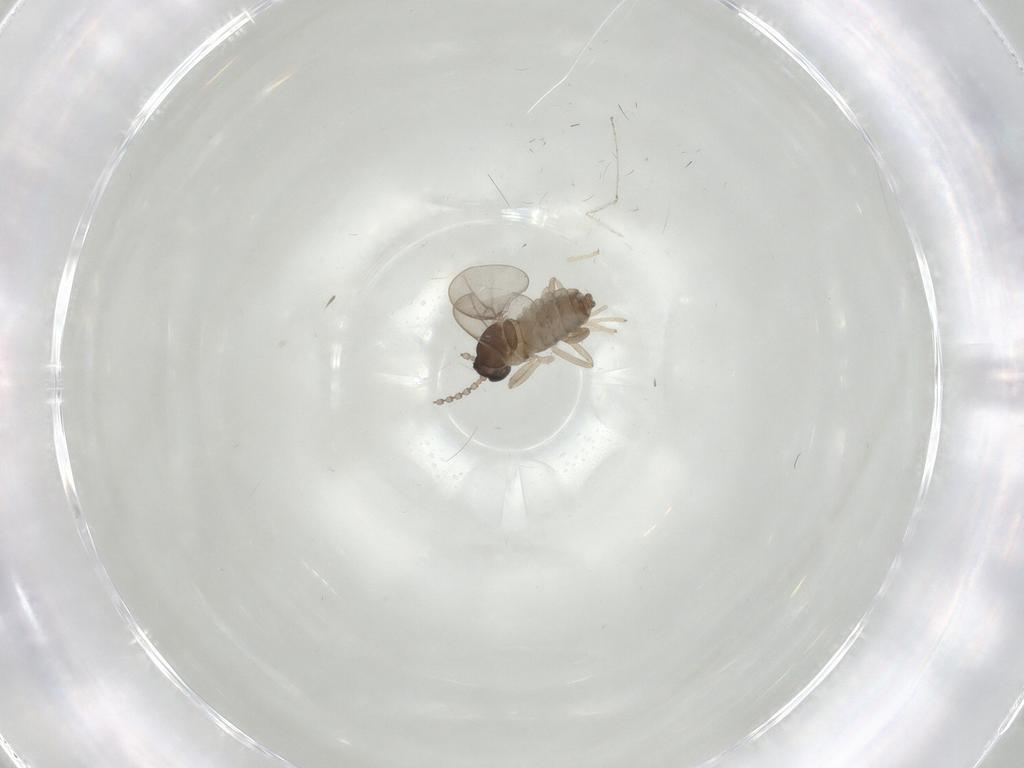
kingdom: Animalia
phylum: Arthropoda
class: Insecta
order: Diptera
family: Cecidomyiidae
